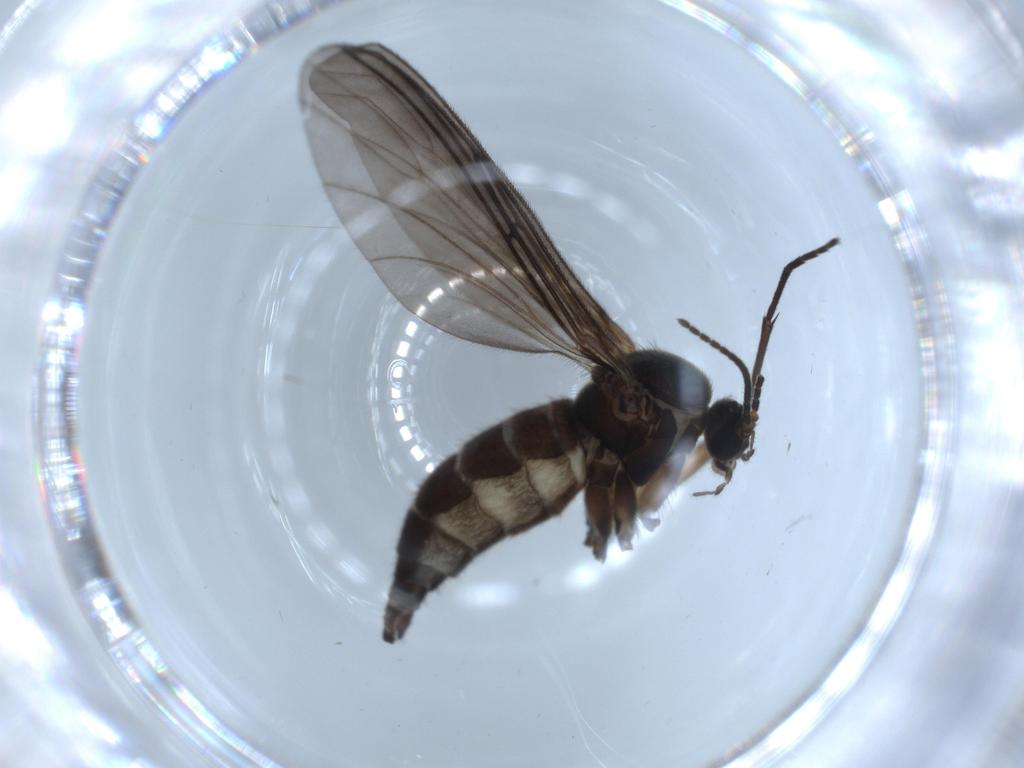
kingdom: Animalia
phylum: Arthropoda
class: Insecta
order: Diptera
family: Sciaridae
